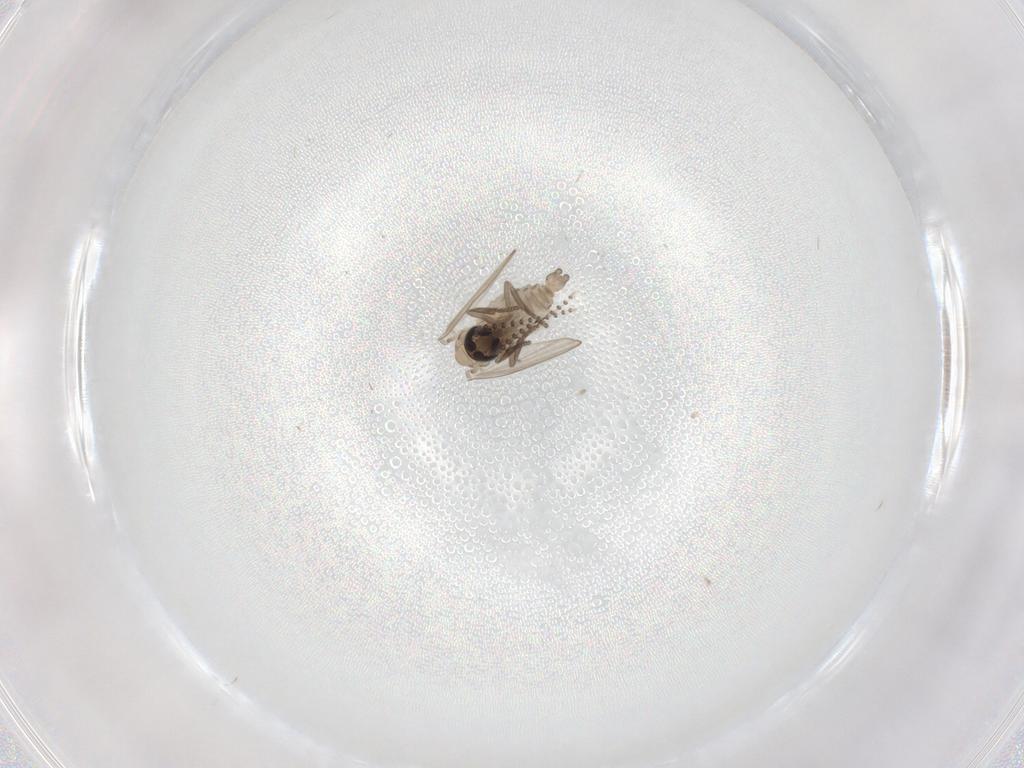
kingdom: Animalia
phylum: Arthropoda
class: Insecta
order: Diptera
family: Psychodidae
